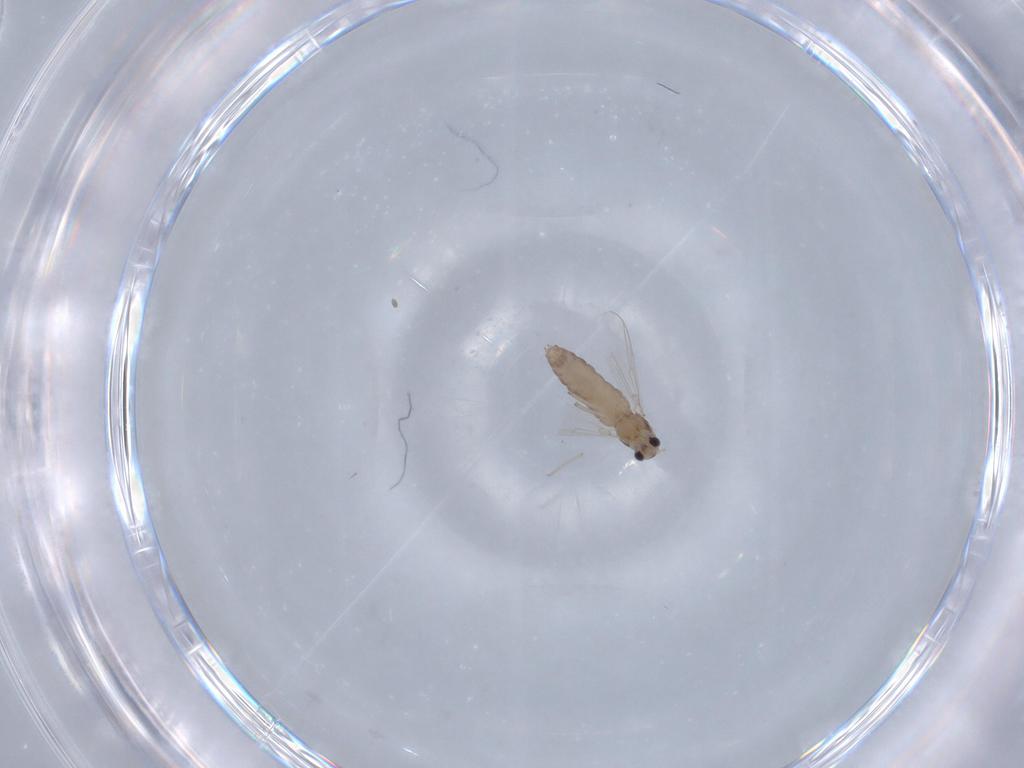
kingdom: Animalia
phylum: Arthropoda
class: Insecta
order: Diptera
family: Chironomidae
